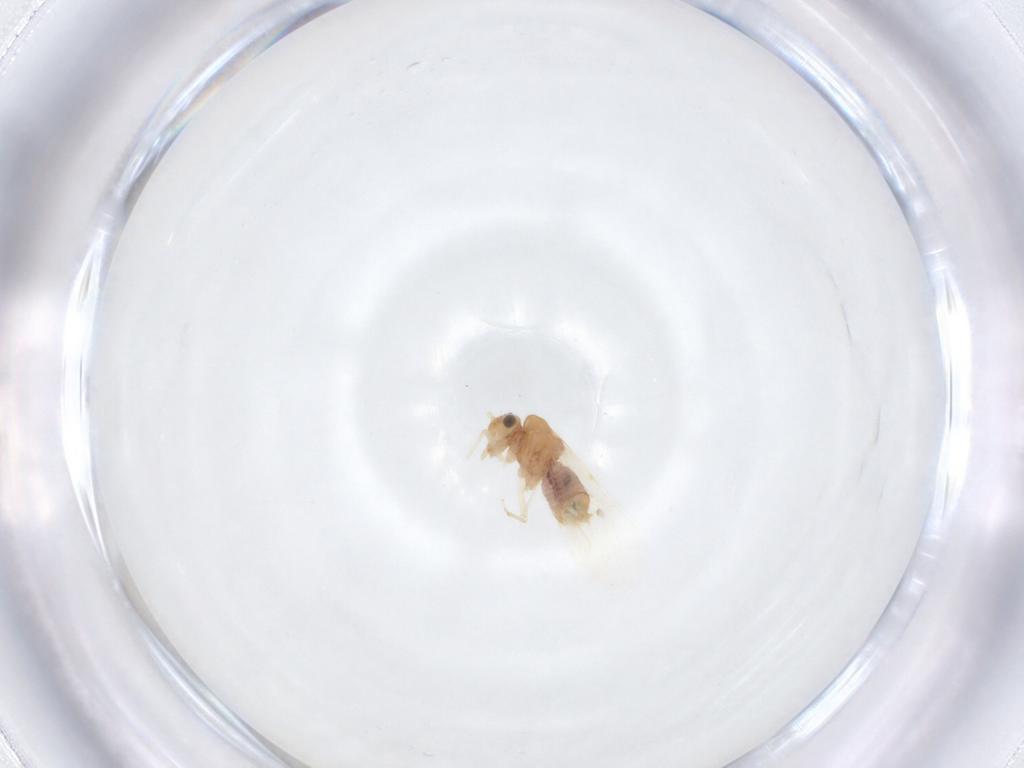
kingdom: Animalia
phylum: Arthropoda
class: Insecta
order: Psocodea
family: Lachesillidae
